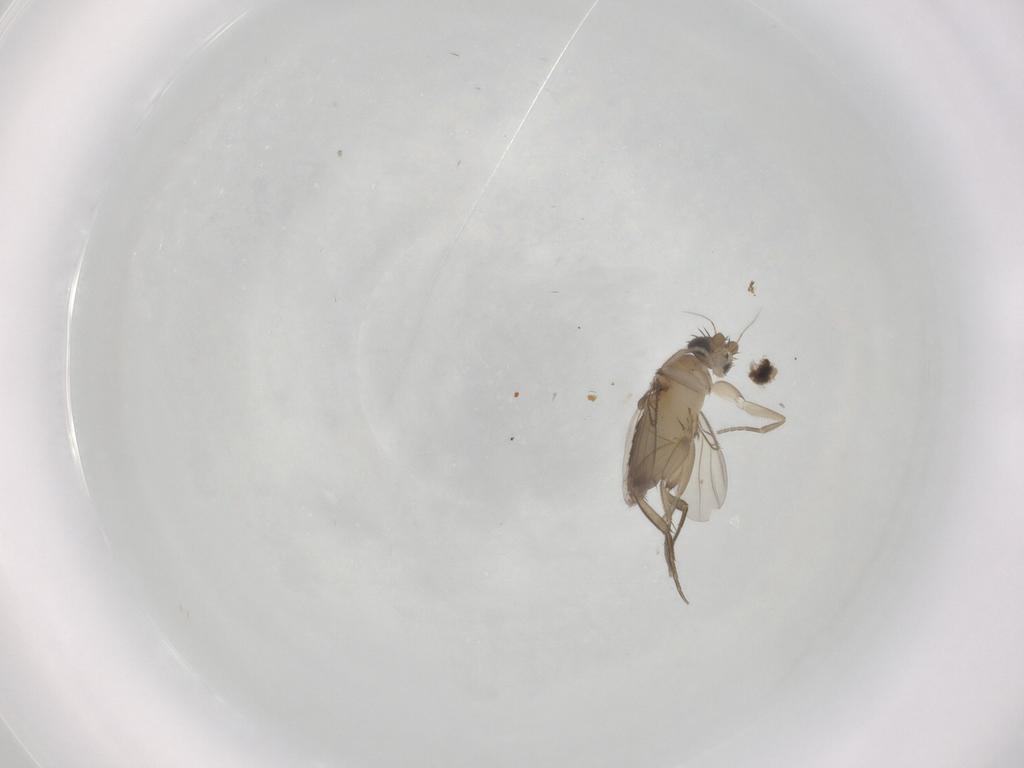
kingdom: Animalia
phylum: Arthropoda
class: Insecta
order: Diptera
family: Phoridae
